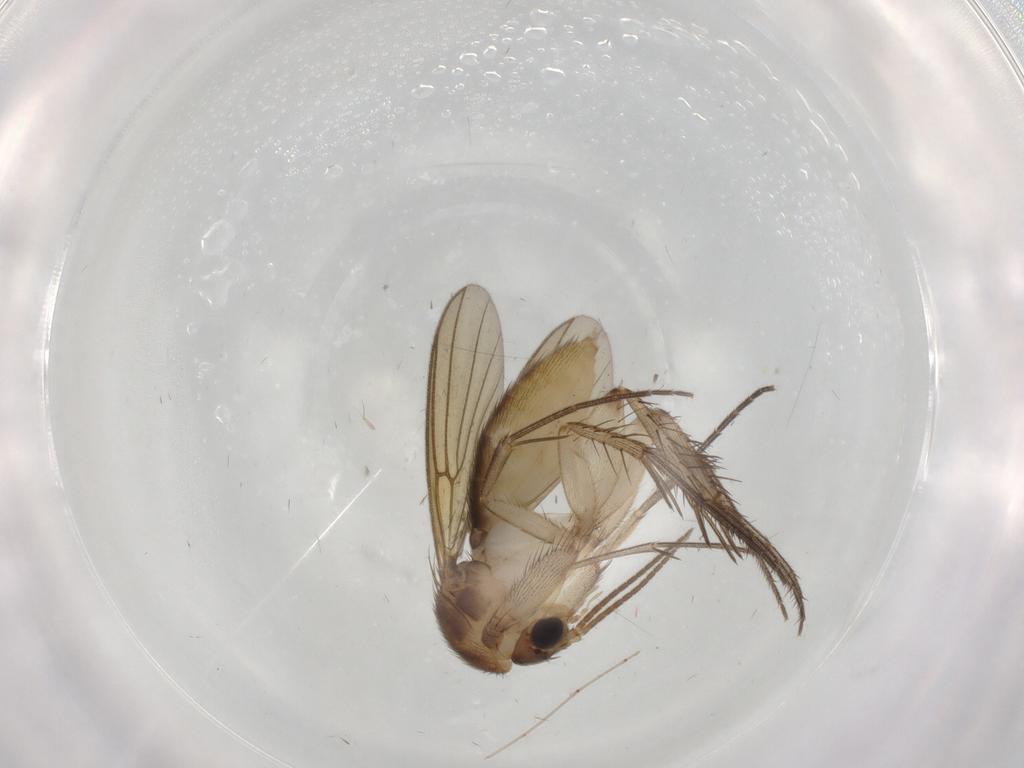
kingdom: Animalia
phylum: Arthropoda
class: Insecta
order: Diptera
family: Mycetophilidae
